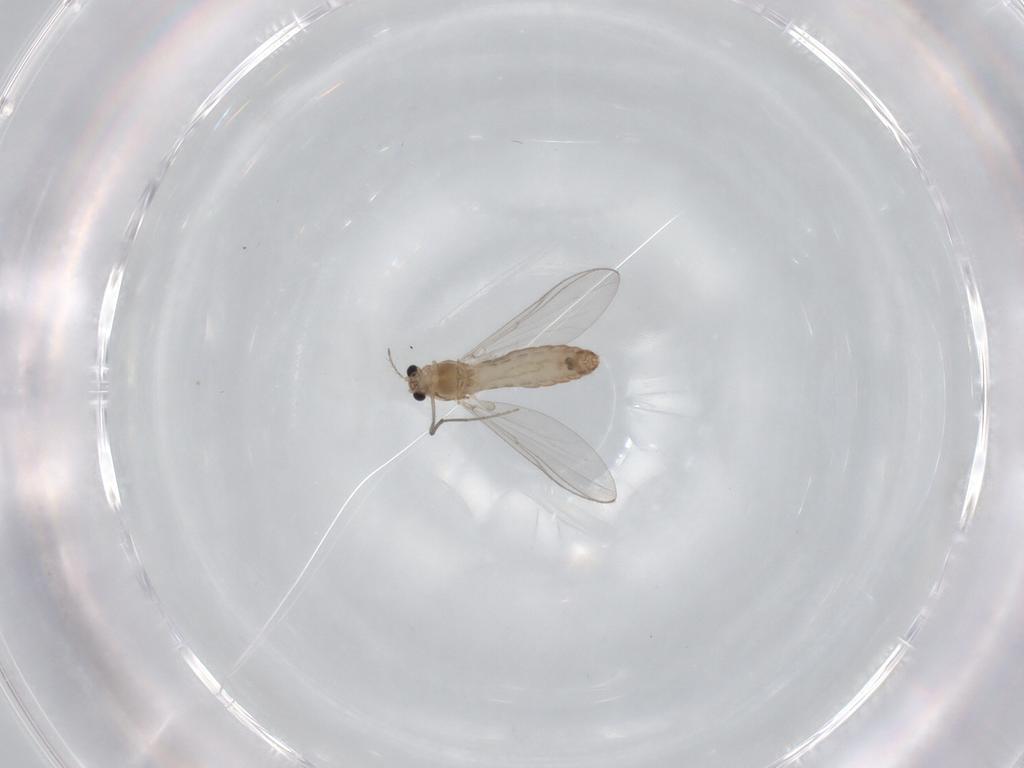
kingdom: Animalia
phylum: Arthropoda
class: Insecta
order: Diptera
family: Chironomidae
